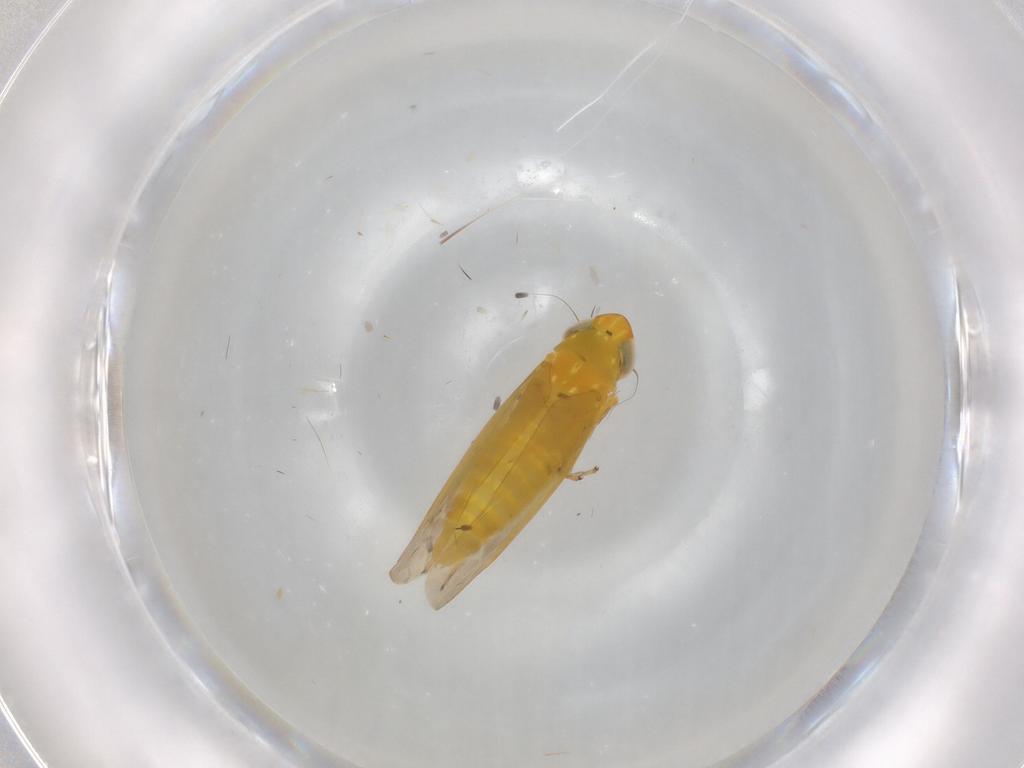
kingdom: Animalia
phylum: Arthropoda
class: Insecta
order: Hemiptera
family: Cicadellidae
